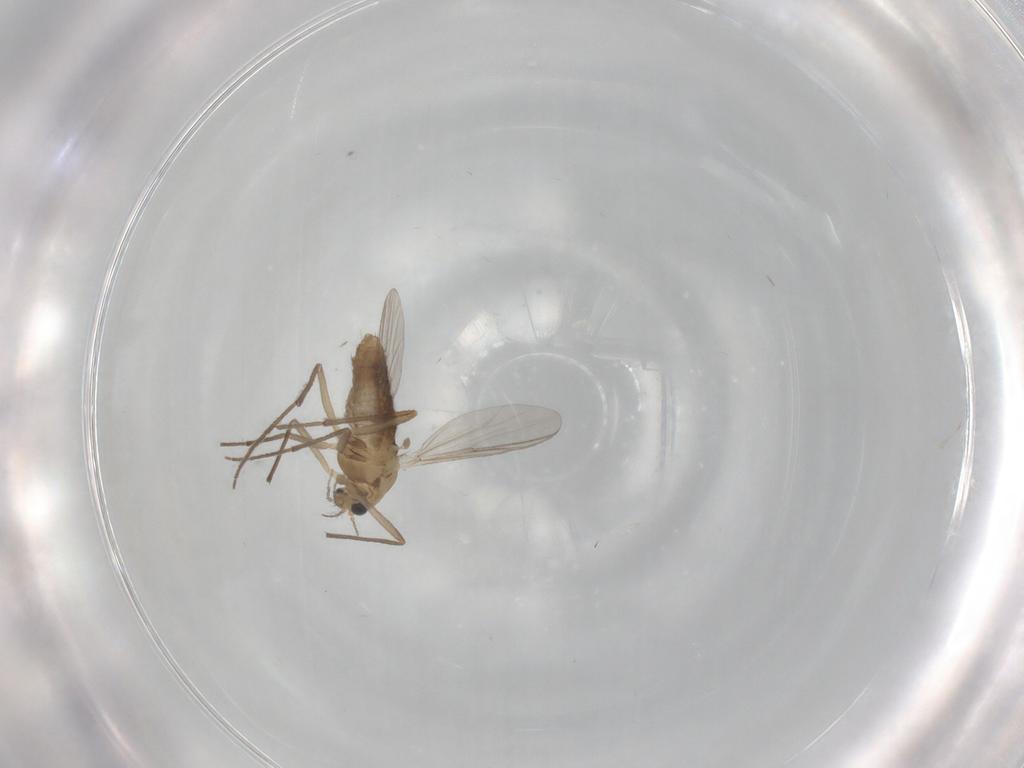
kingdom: Animalia
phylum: Arthropoda
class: Insecta
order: Diptera
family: Chironomidae
